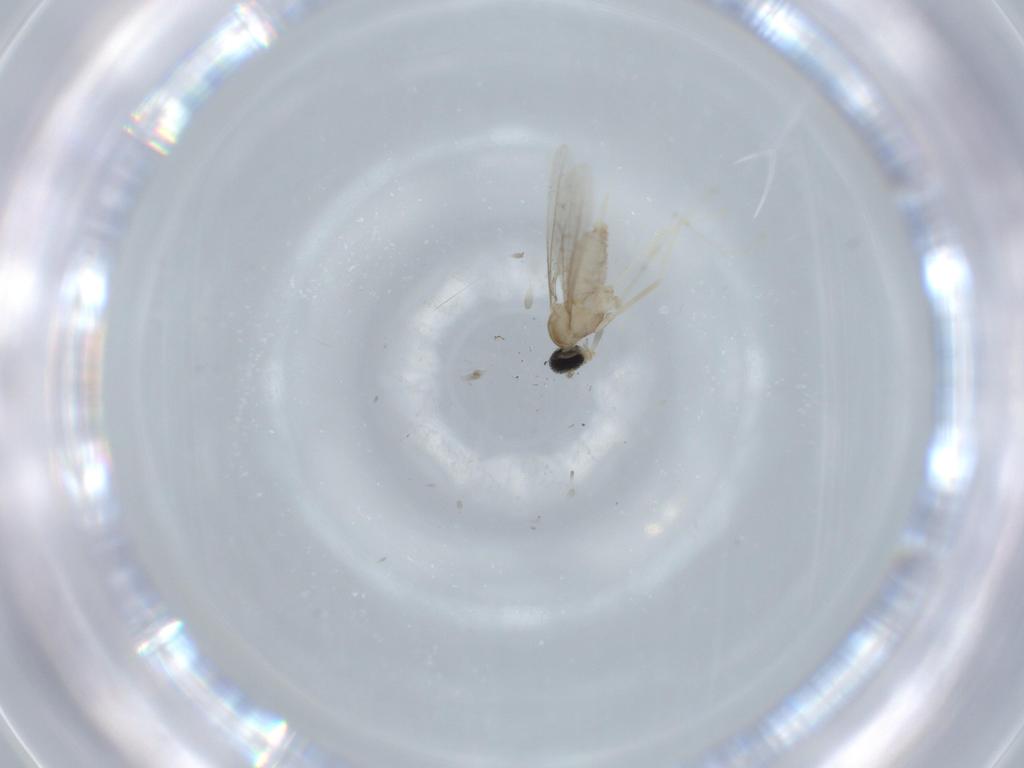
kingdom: Animalia
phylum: Arthropoda
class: Insecta
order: Diptera
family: Cecidomyiidae
